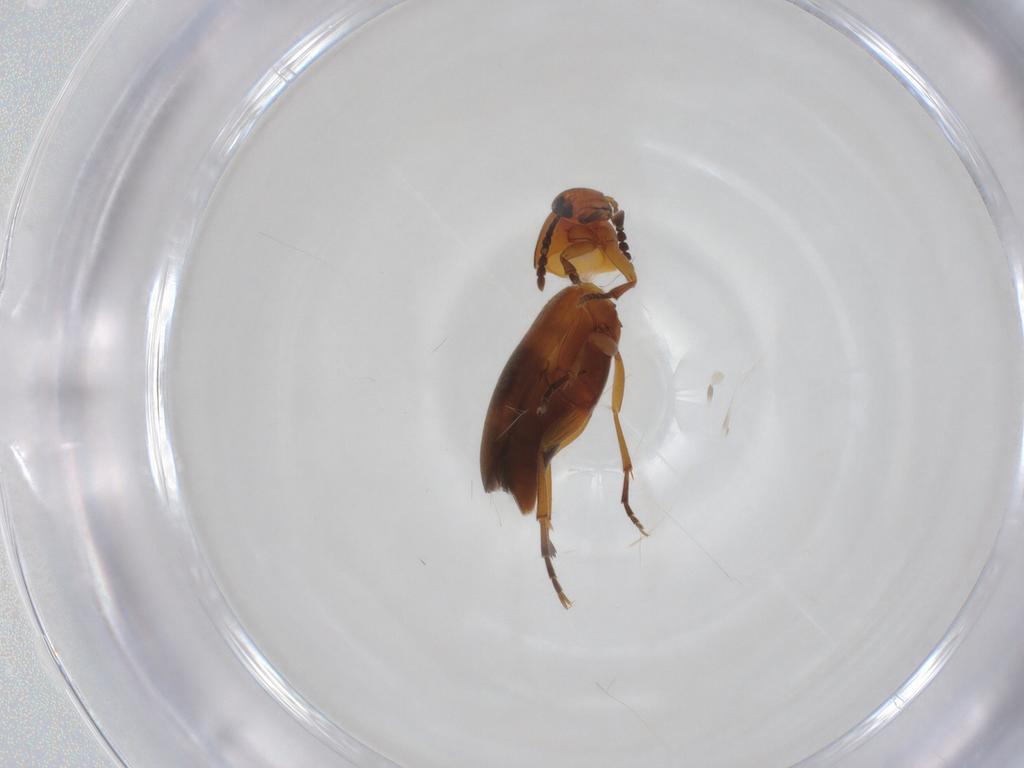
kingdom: Animalia
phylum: Arthropoda
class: Insecta
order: Coleoptera
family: Scraptiidae
